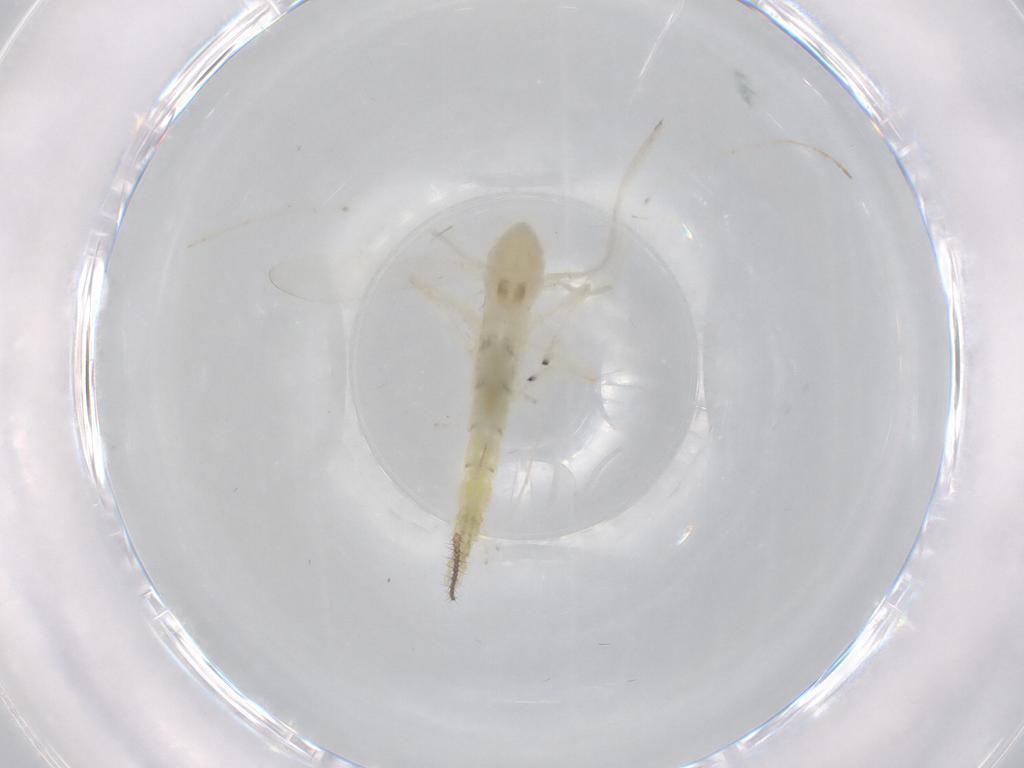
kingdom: Animalia
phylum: Arthropoda
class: Insecta
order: Diptera
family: Chironomidae
